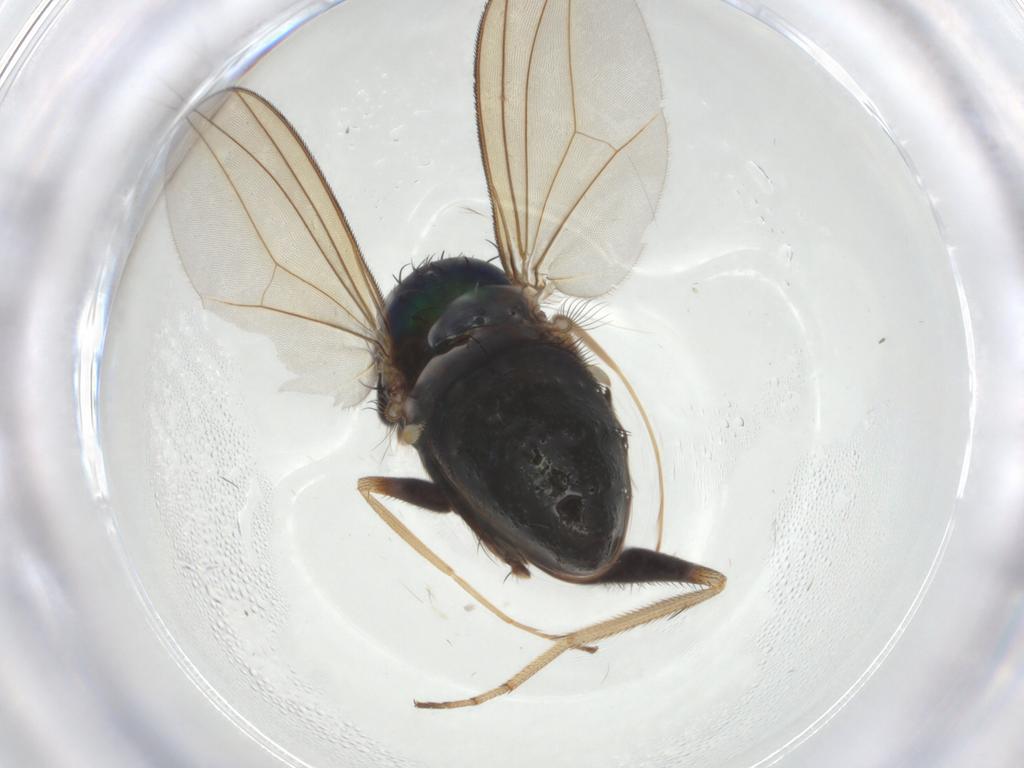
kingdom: Animalia
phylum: Arthropoda
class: Insecta
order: Diptera
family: Dolichopodidae
